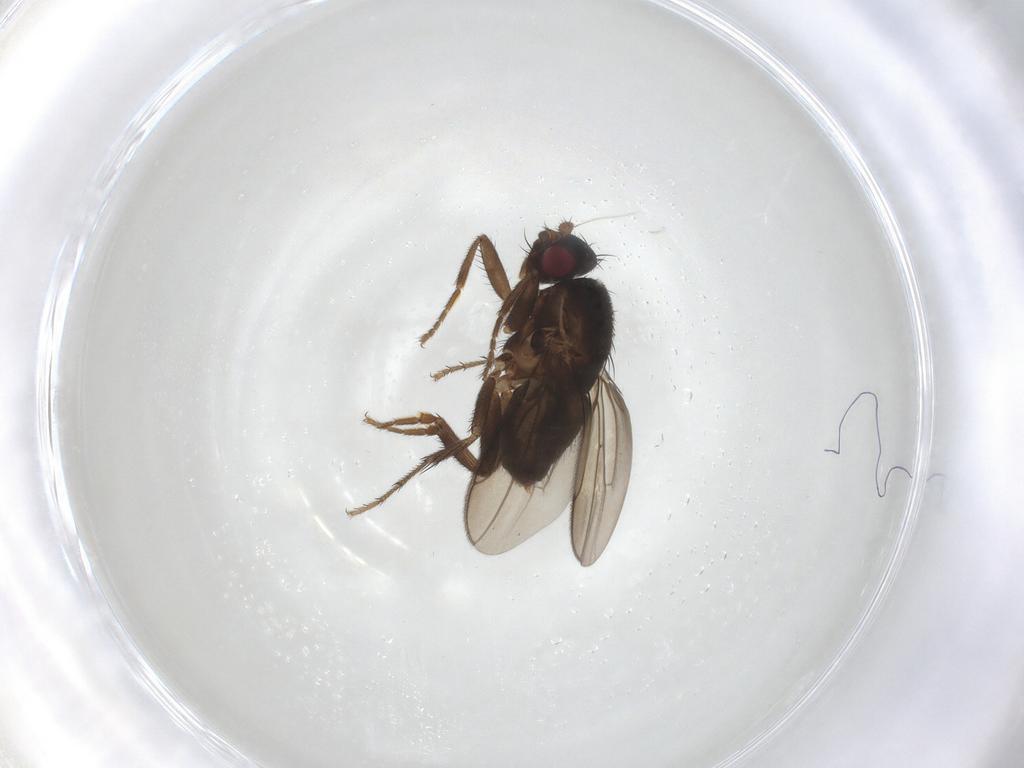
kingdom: Animalia
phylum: Arthropoda
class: Insecta
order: Diptera
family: Sphaeroceridae
